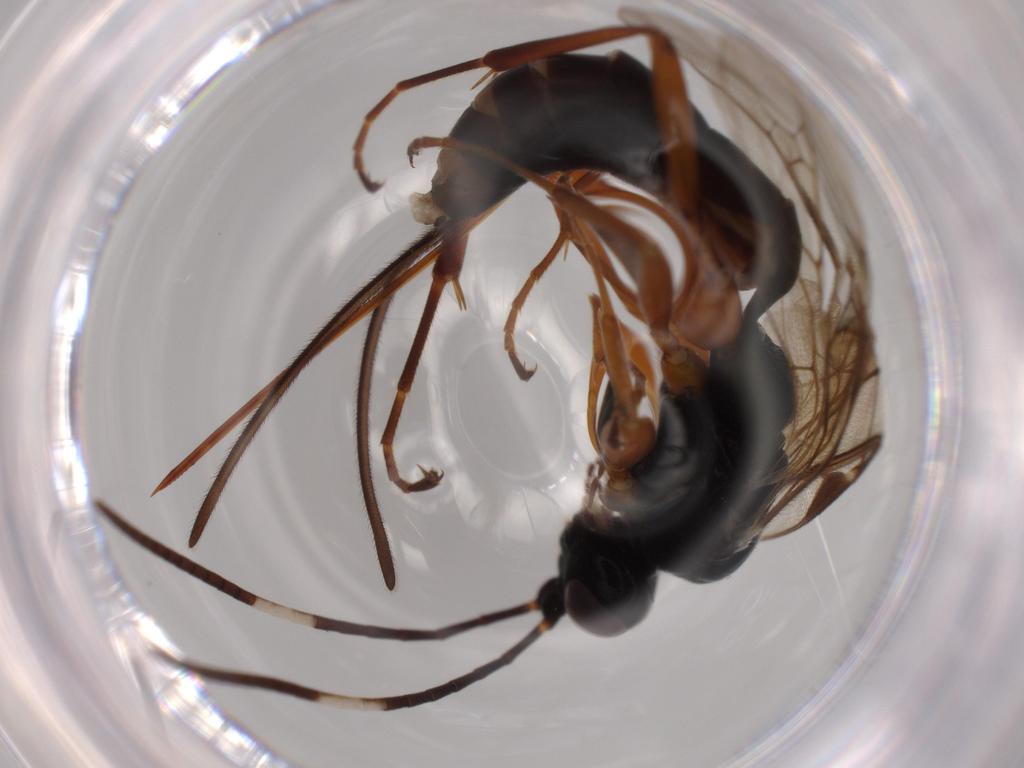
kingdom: Animalia
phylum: Arthropoda
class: Insecta
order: Hymenoptera
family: Ichneumonidae
